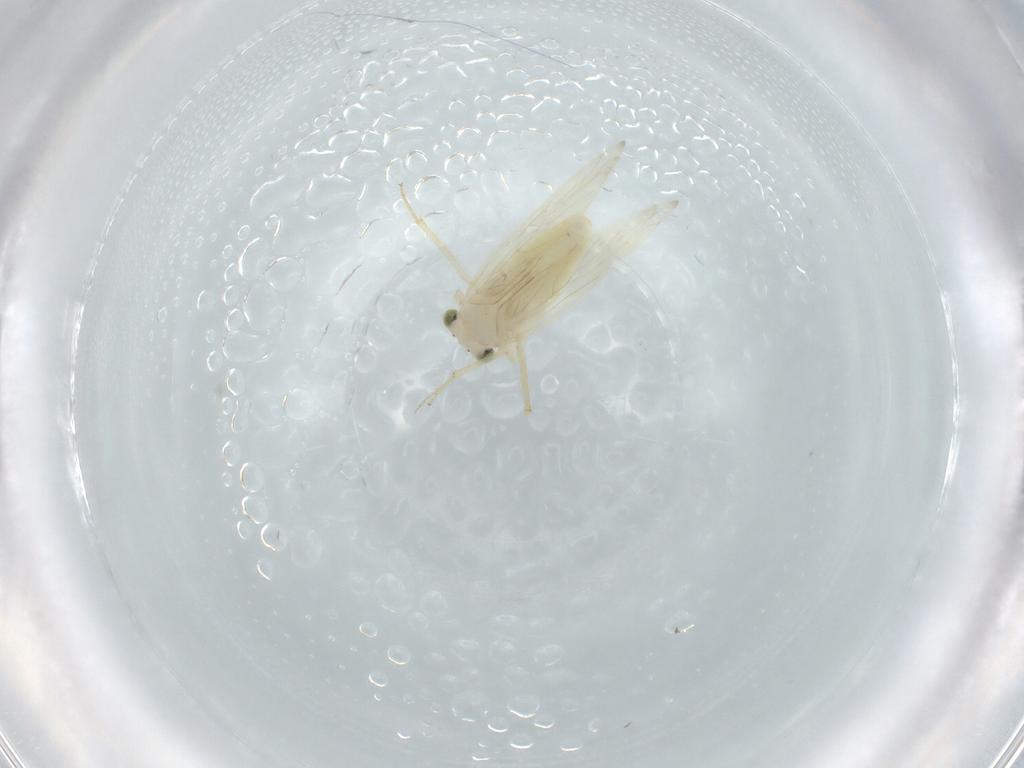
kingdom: Animalia
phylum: Arthropoda
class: Insecta
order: Psocodea
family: Lepidopsocidae
